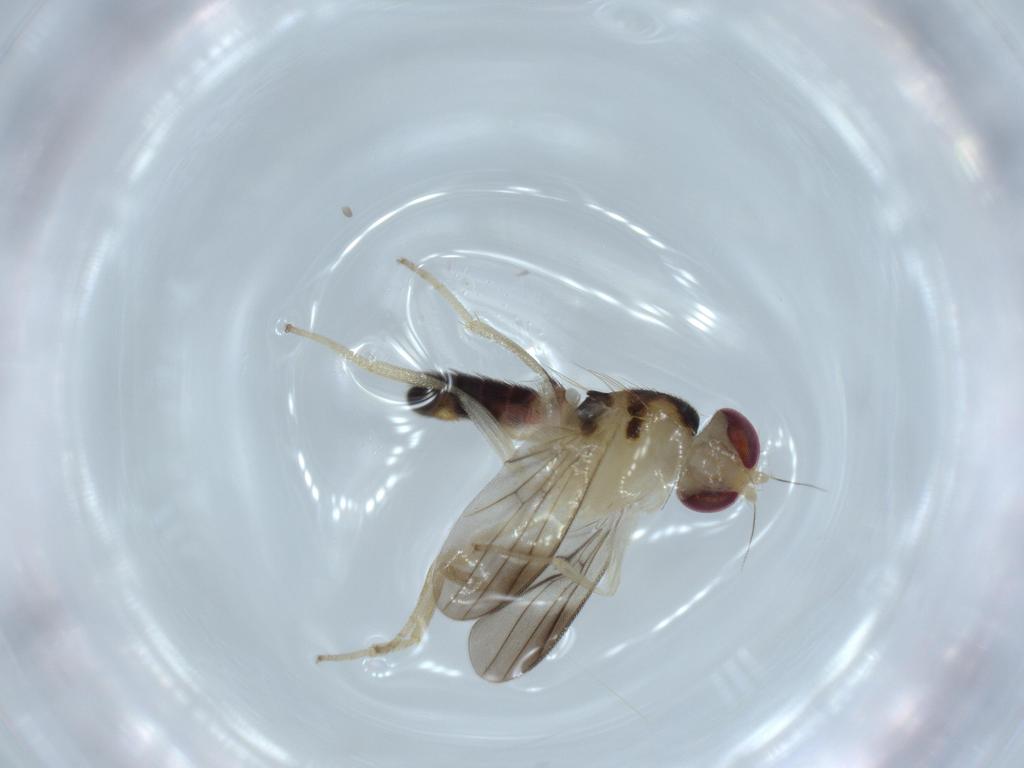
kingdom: Animalia
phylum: Arthropoda
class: Insecta
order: Diptera
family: Clusiidae
